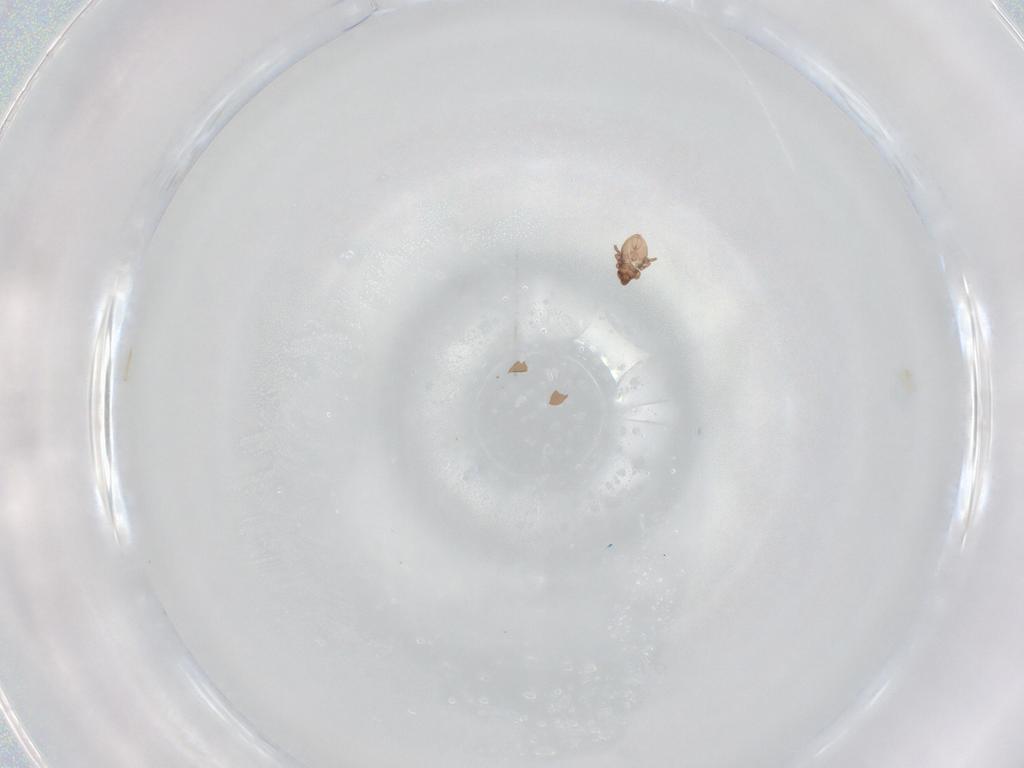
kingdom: Animalia
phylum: Arthropoda
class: Arachnida
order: Sarcoptiformes
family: Eremaeidae
